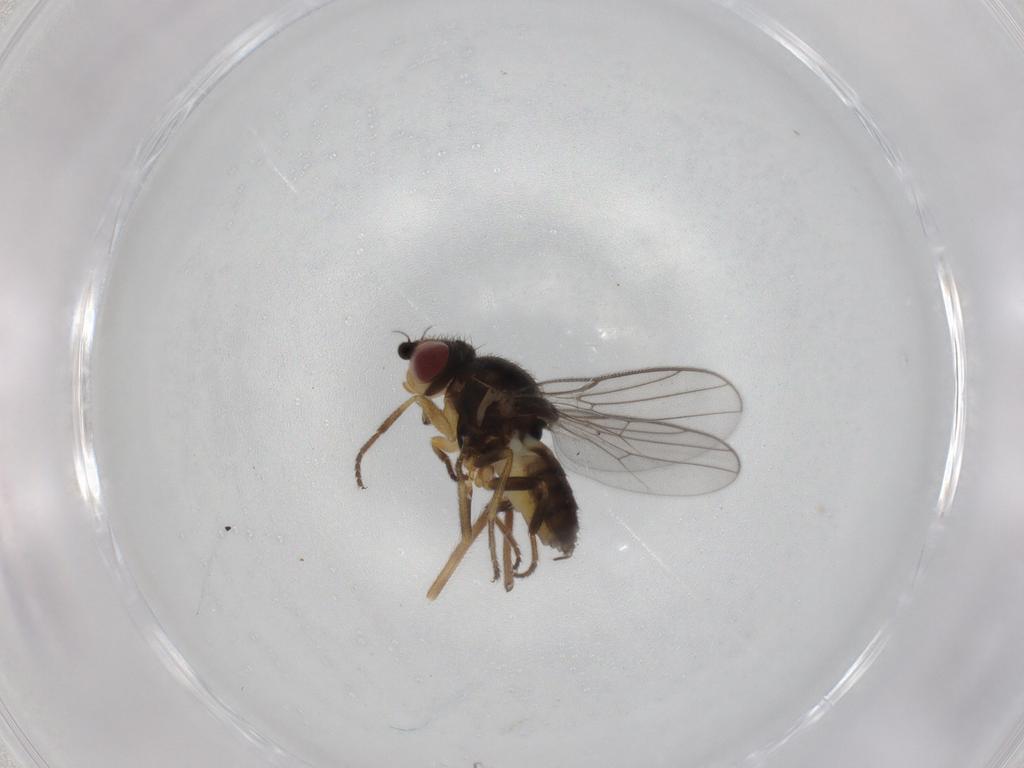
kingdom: Animalia
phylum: Arthropoda
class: Insecta
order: Diptera
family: Chloropidae
